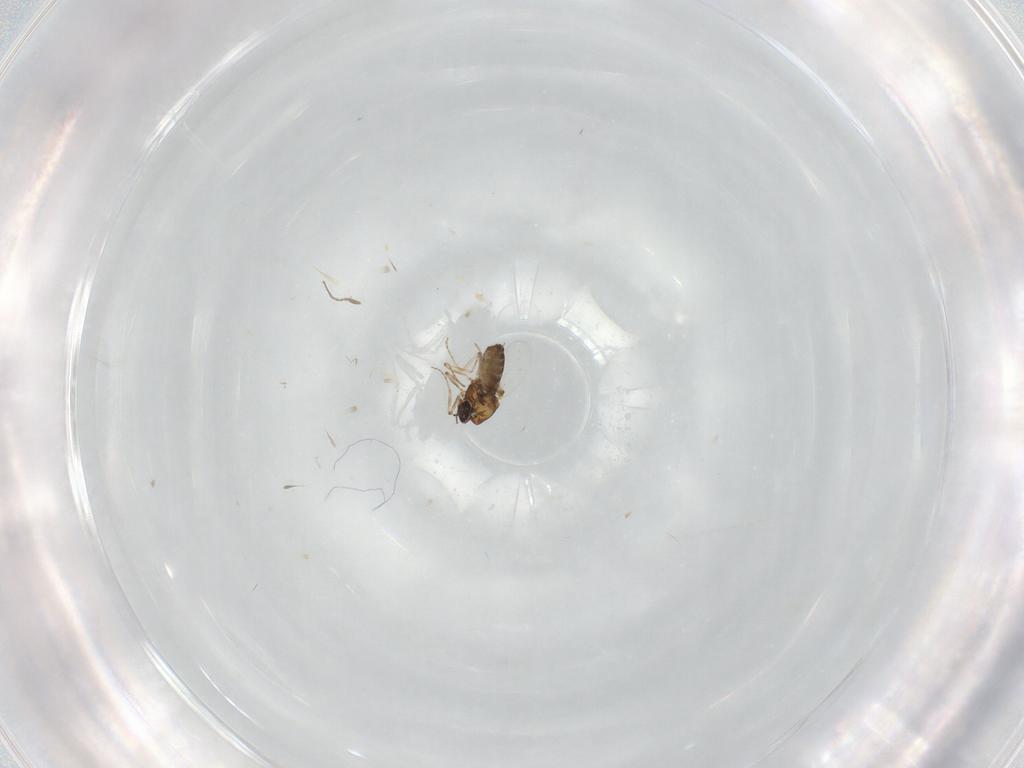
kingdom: Animalia
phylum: Arthropoda
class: Insecta
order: Diptera
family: Ceratopogonidae
